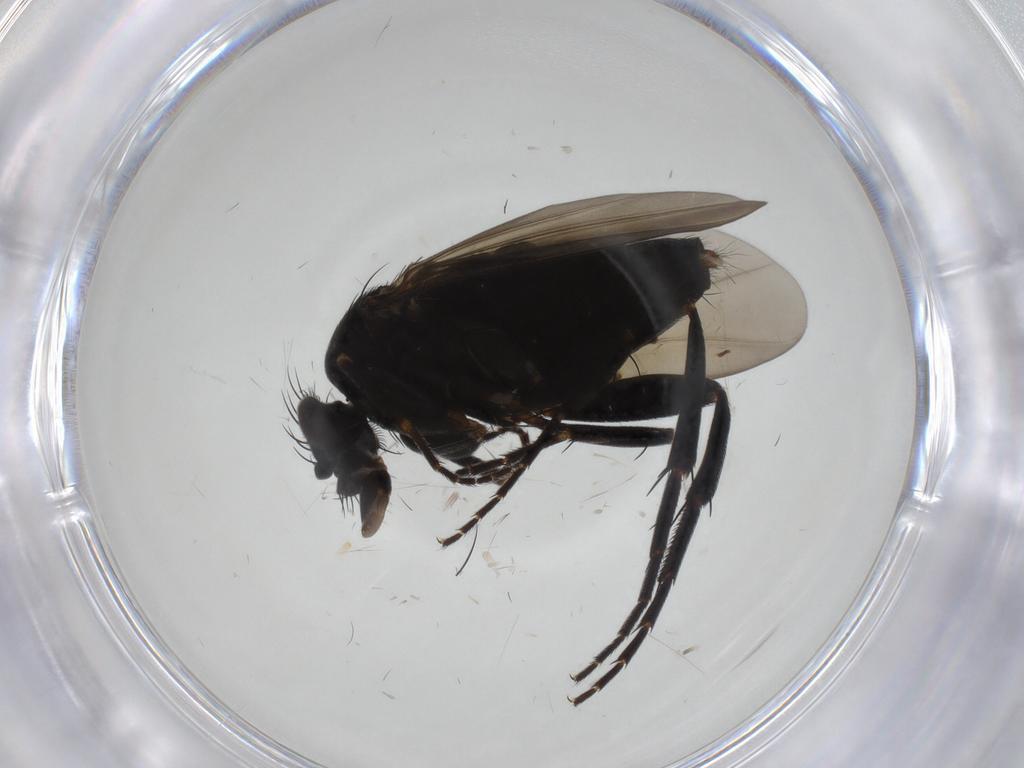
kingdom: Animalia
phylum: Arthropoda
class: Insecta
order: Diptera
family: Phoridae
